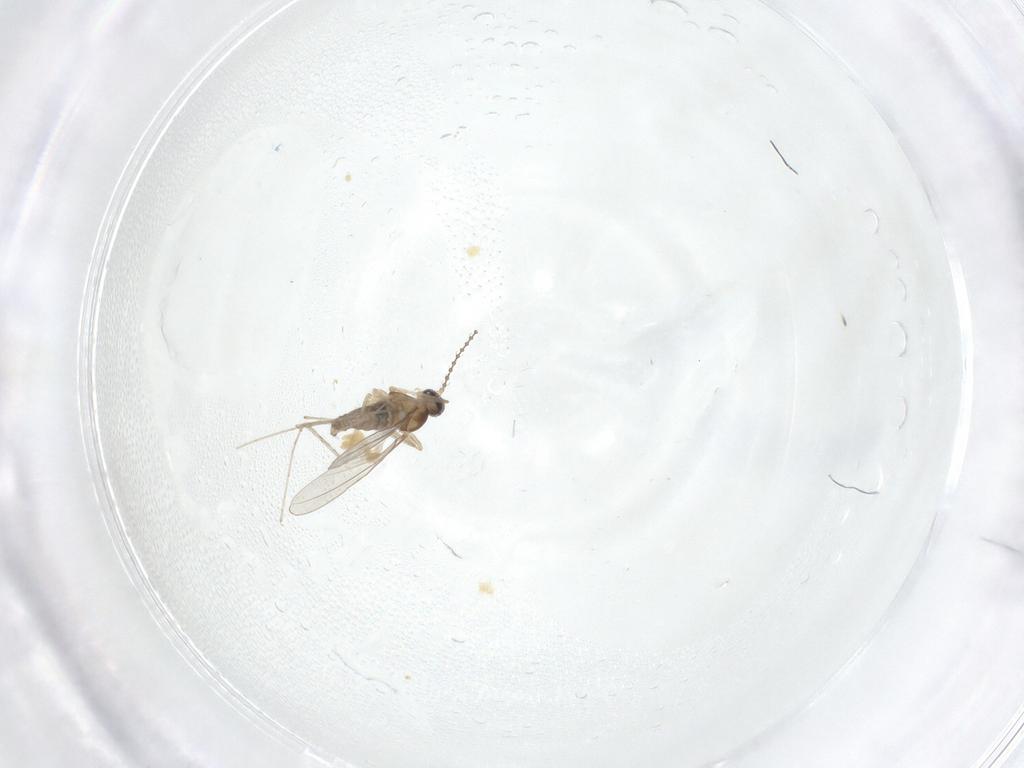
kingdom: Animalia
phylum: Arthropoda
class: Insecta
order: Diptera
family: Cecidomyiidae
